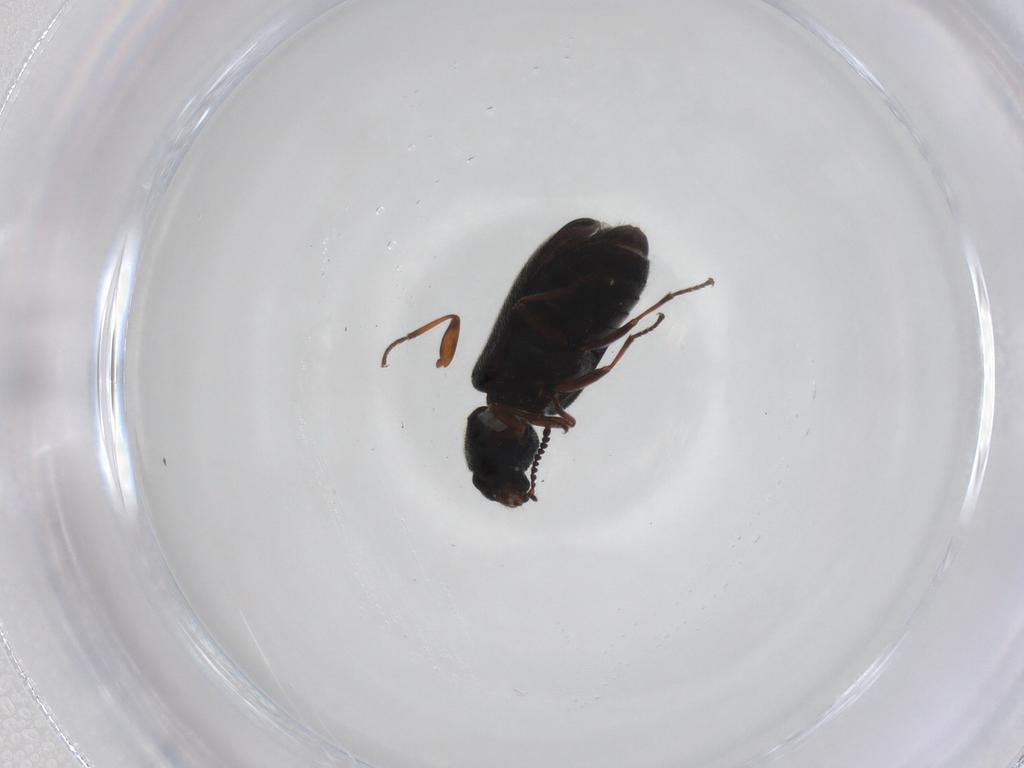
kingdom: Animalia
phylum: Arthropoda
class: Insecta
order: Coleoptera
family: Melyridae
